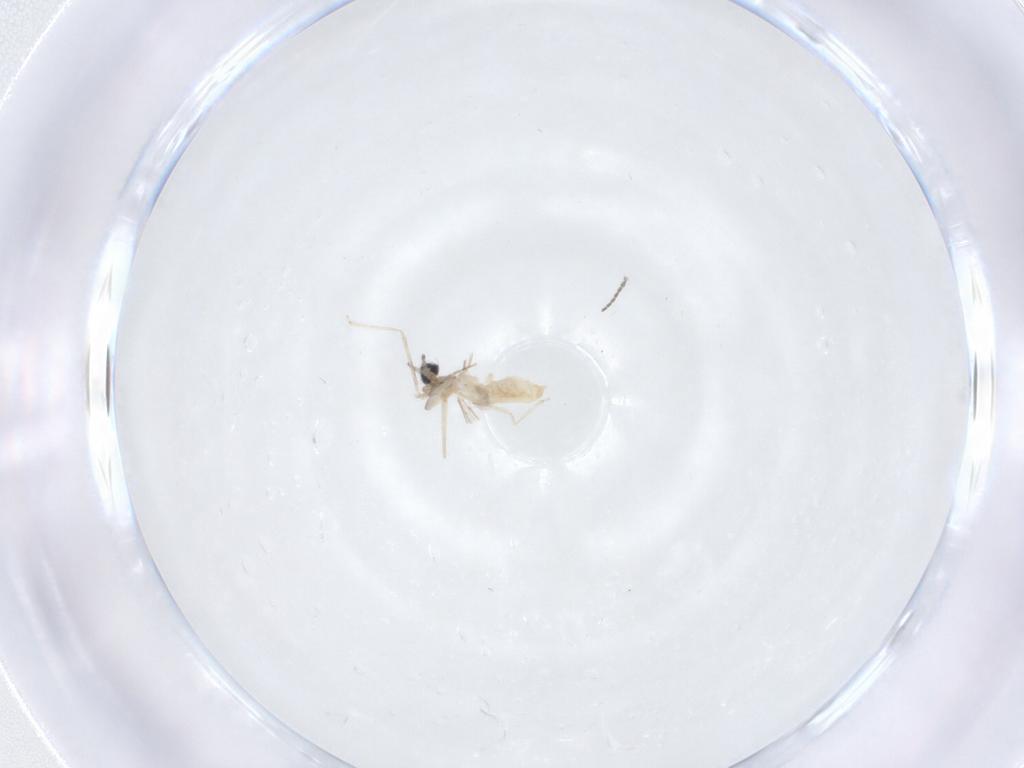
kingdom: Animalia
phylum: Arthropoda
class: Insecta
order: Diptera
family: Cecidomyiidae
